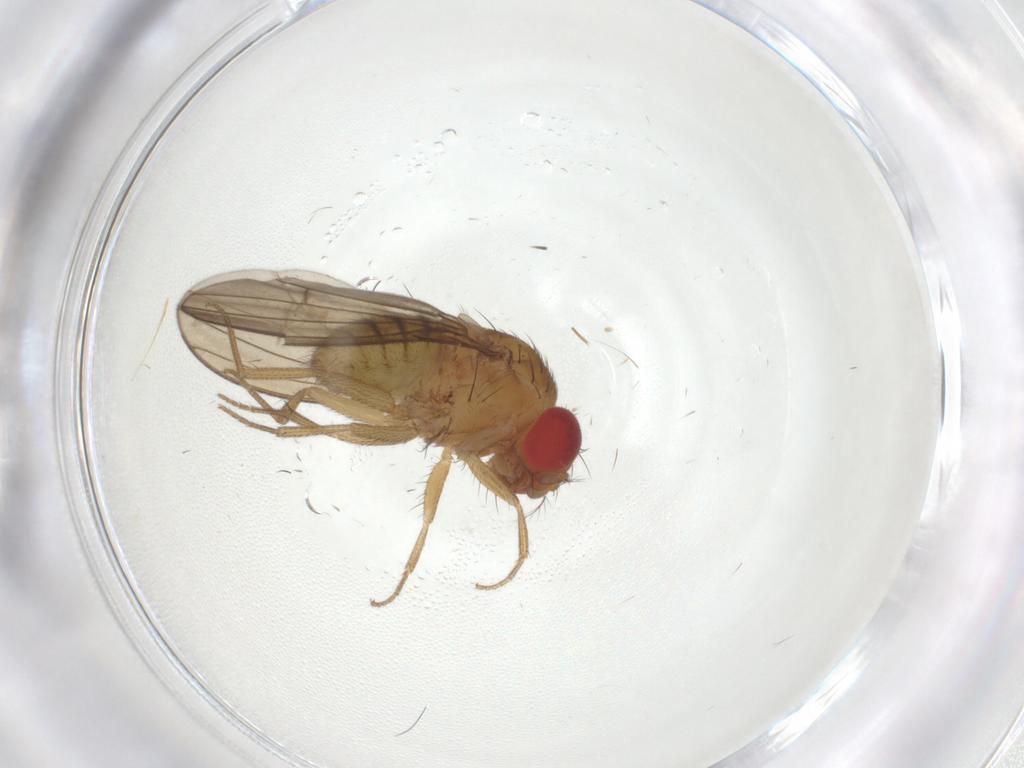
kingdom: Animalia
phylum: Arthropoda
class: Insecta
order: Diptera
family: Drosophilidae
